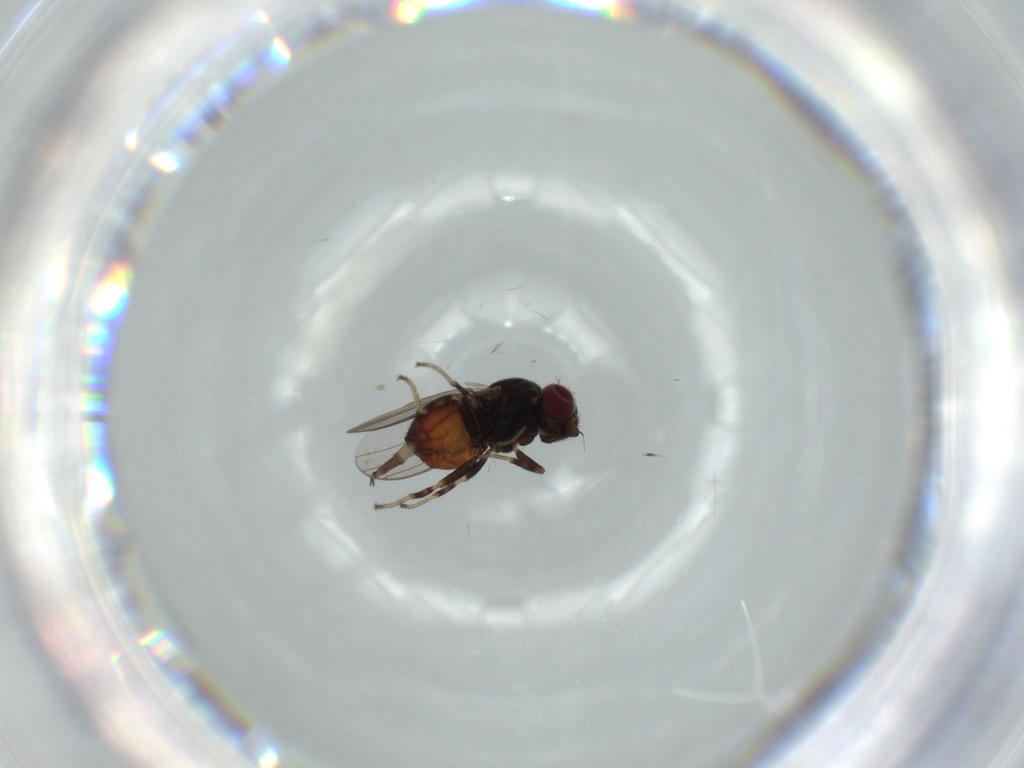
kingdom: Animalia
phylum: Arthropoda
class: Insecta
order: Diptera
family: Chloropidae
